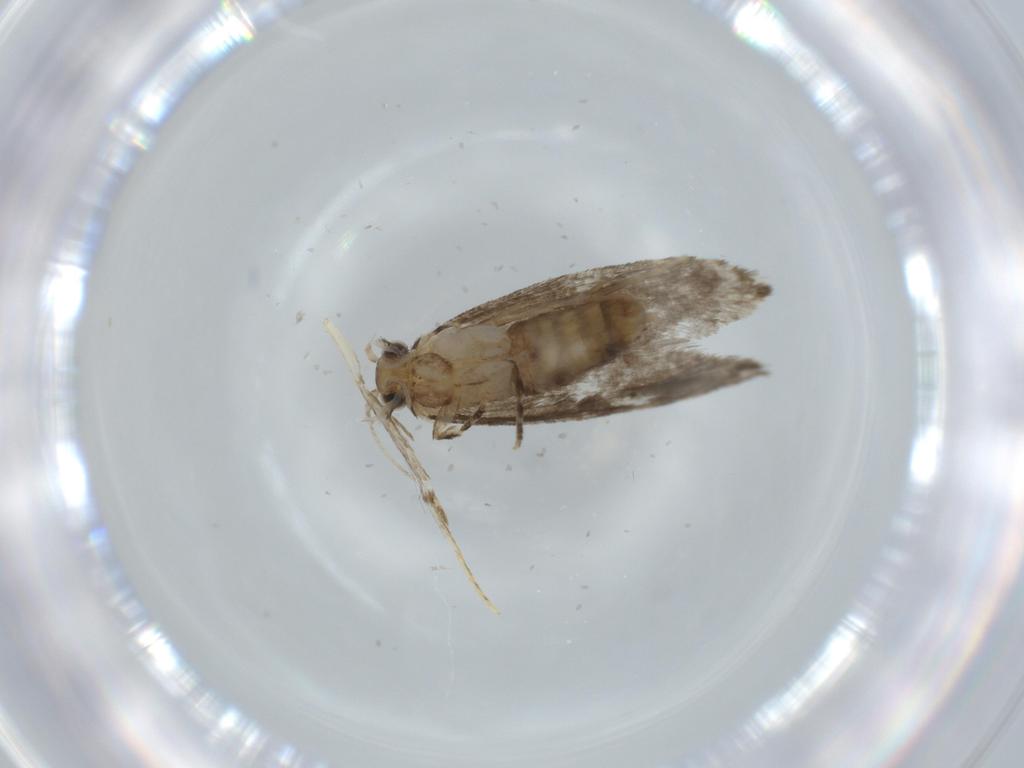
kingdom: Animalia
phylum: Arthropoda
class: Insecta
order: Lepidoptera
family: Tineidae
